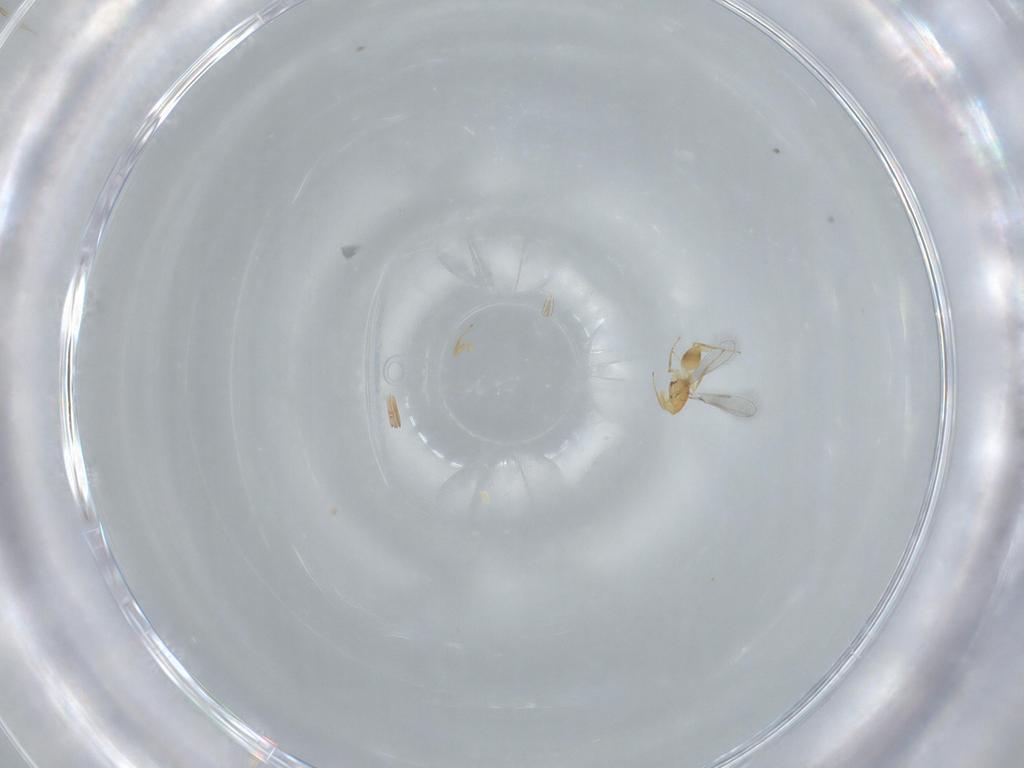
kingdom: Animalia
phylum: Arthropoda
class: Insecta
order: Hymenoptera
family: Mymaridae
